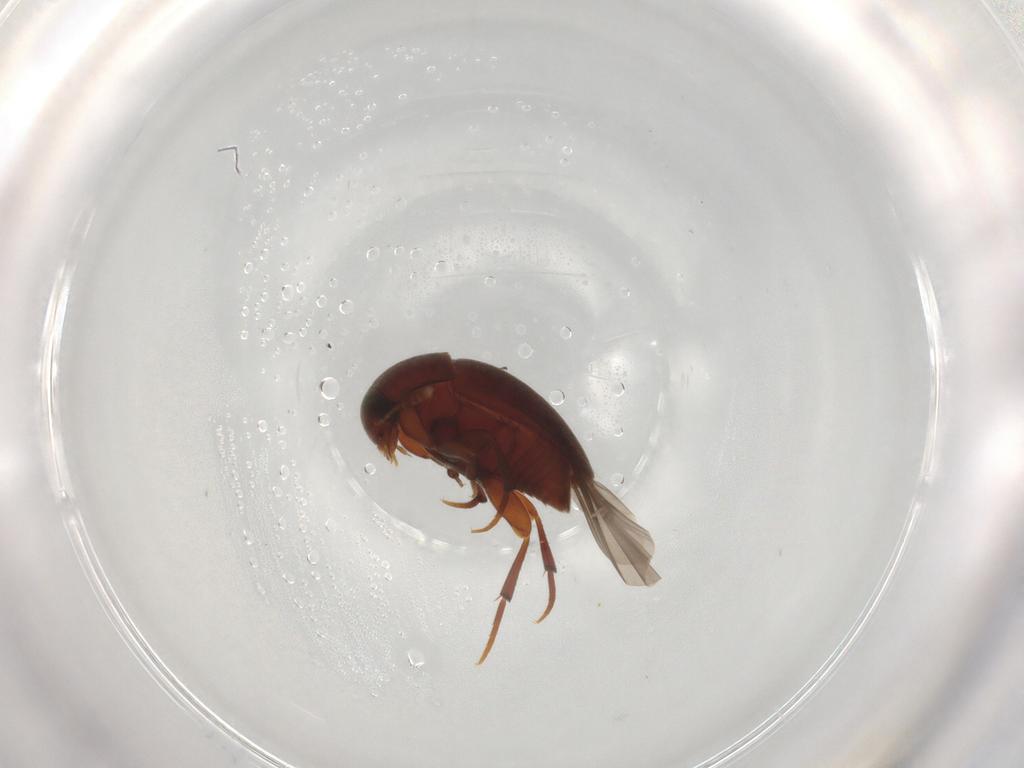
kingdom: Animalia
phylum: Arthropoda
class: Insecta
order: Coleoptera
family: Leiodidae
